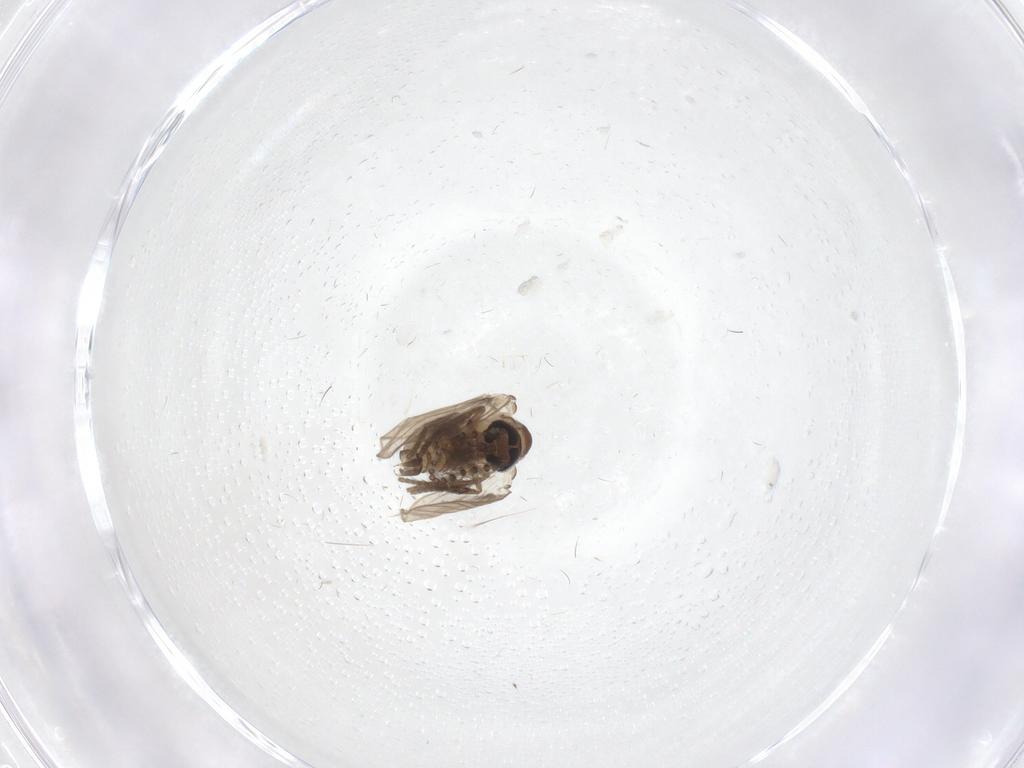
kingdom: Animalia
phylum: Arthropoda
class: Insecta
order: Diptera
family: Psychodidae
